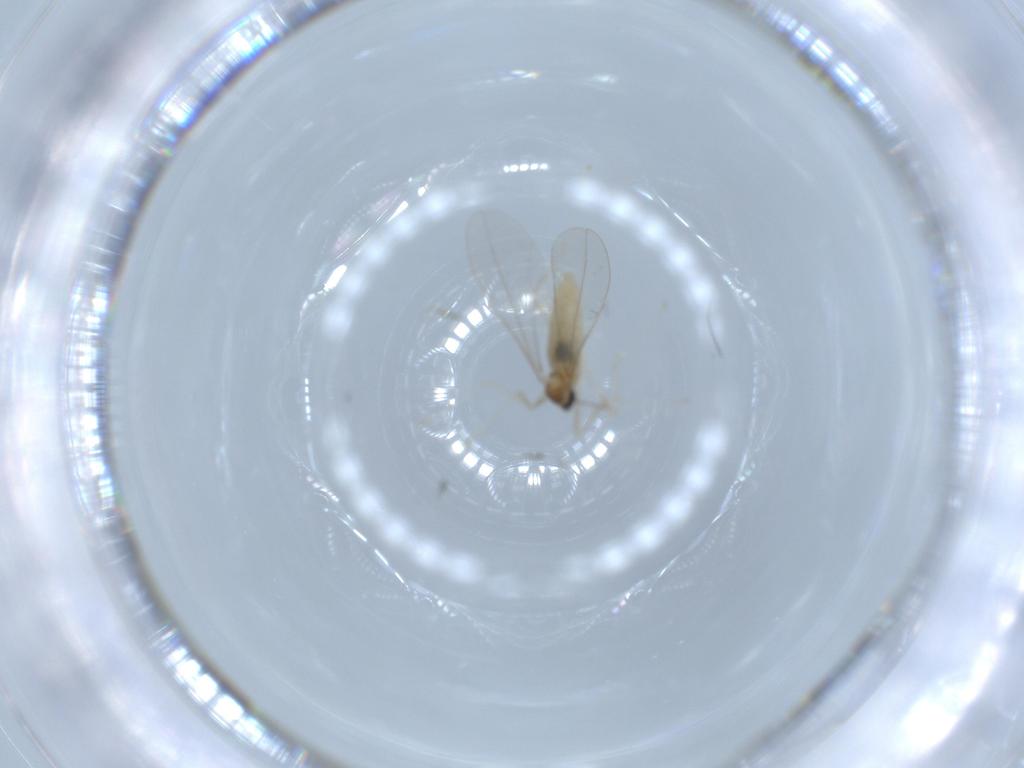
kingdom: Animalia
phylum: Arthropoda
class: Insecta
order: Diptera
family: Cecidomyiidae
